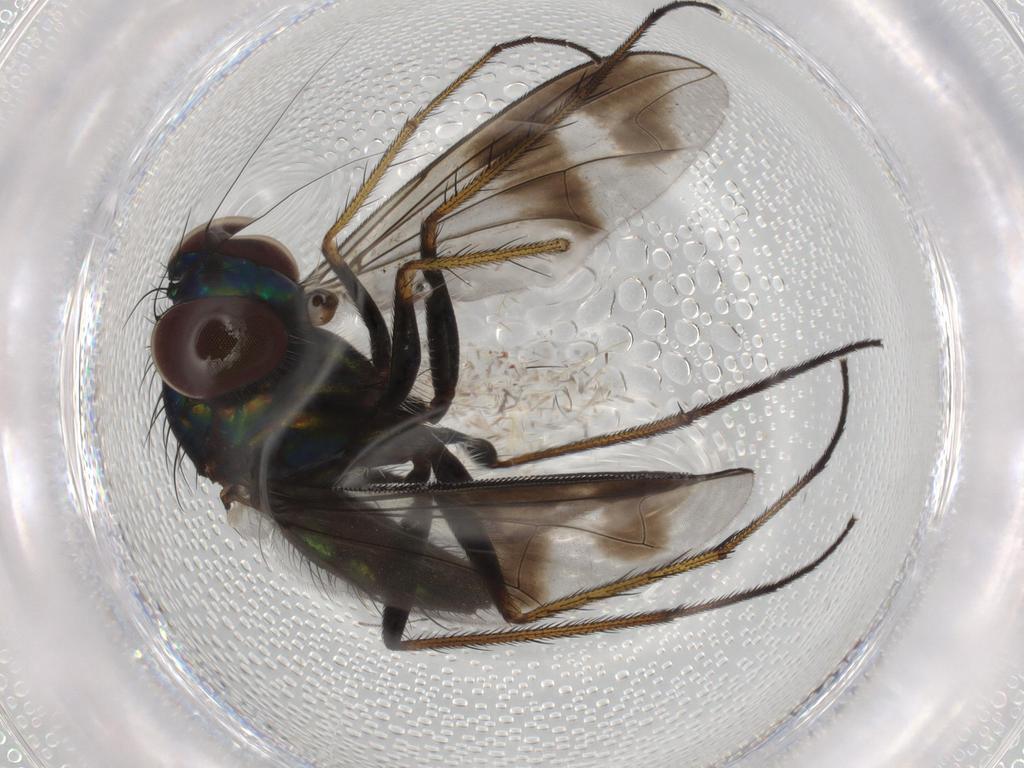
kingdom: Animalia
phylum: Arthropoda
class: Insecta
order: Diptera
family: Dolichopodidae
